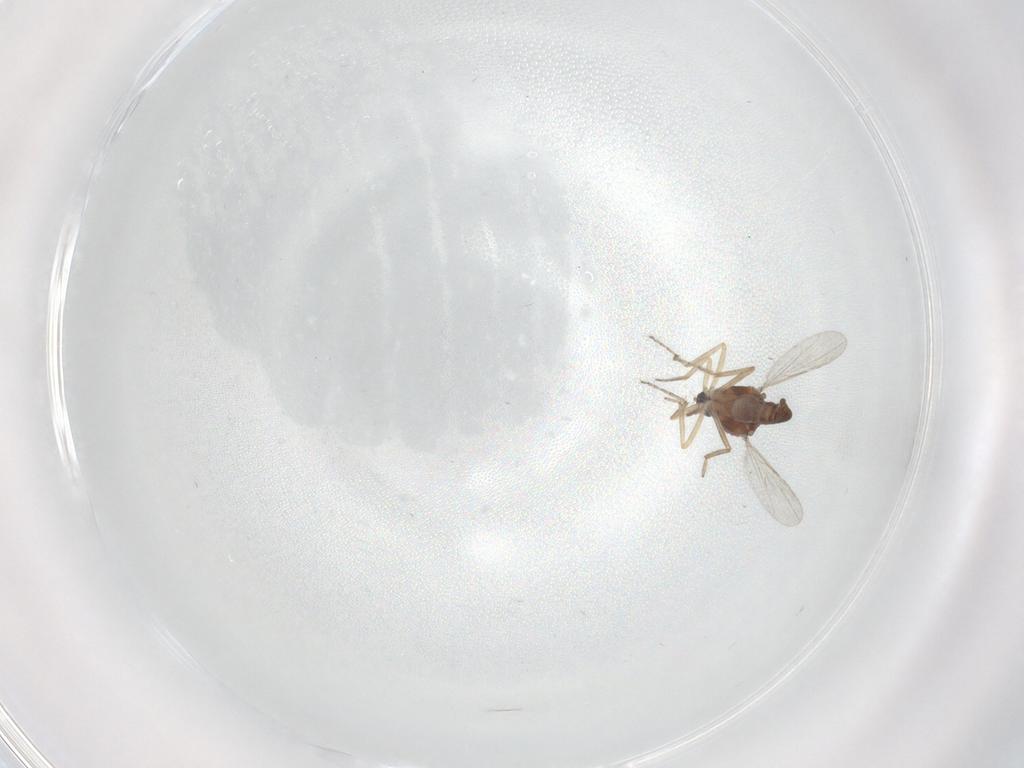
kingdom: Animalia
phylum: Arthropoda
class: Insecta
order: Diptera
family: Ceratopogonidae
